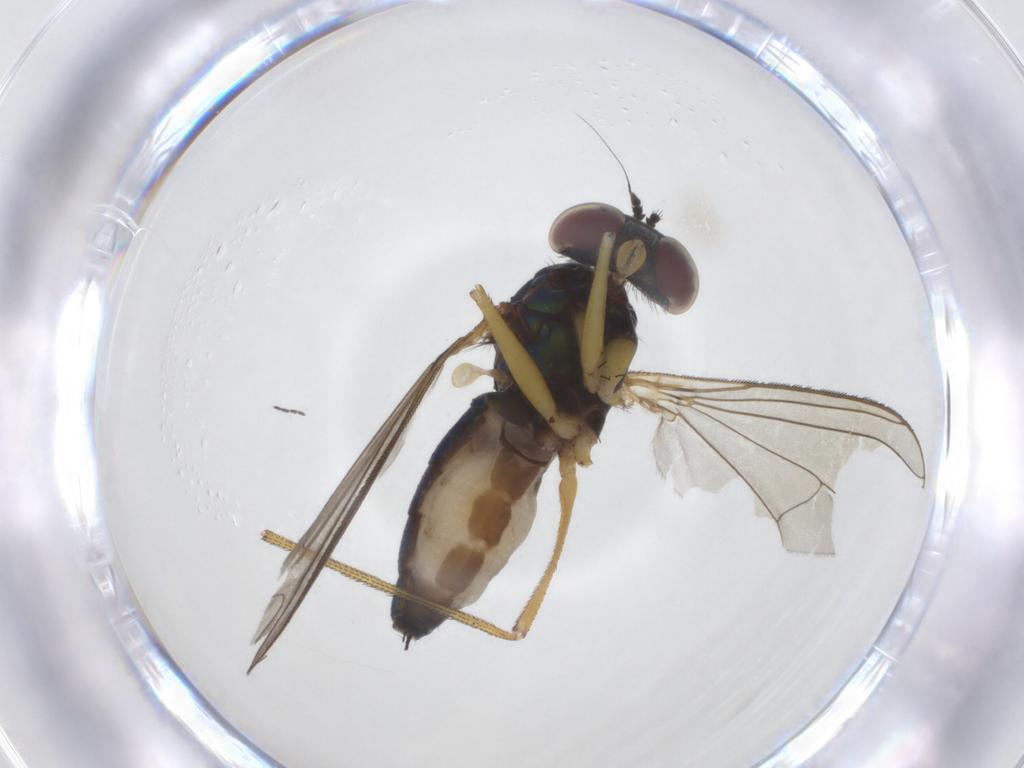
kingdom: Animalia
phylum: Arthropoda
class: Insecta
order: Diptera
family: Dolichopodidae
